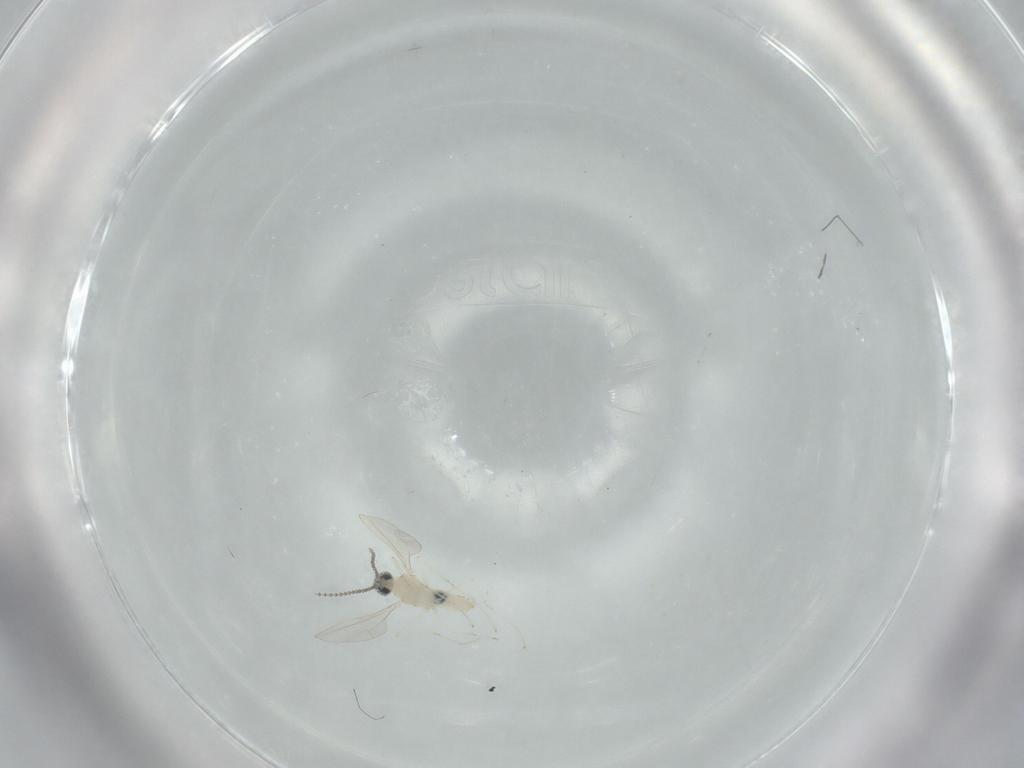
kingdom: Animalia
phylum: Arthropoda
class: Insecta
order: Diptera
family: Cecidomyiidae
